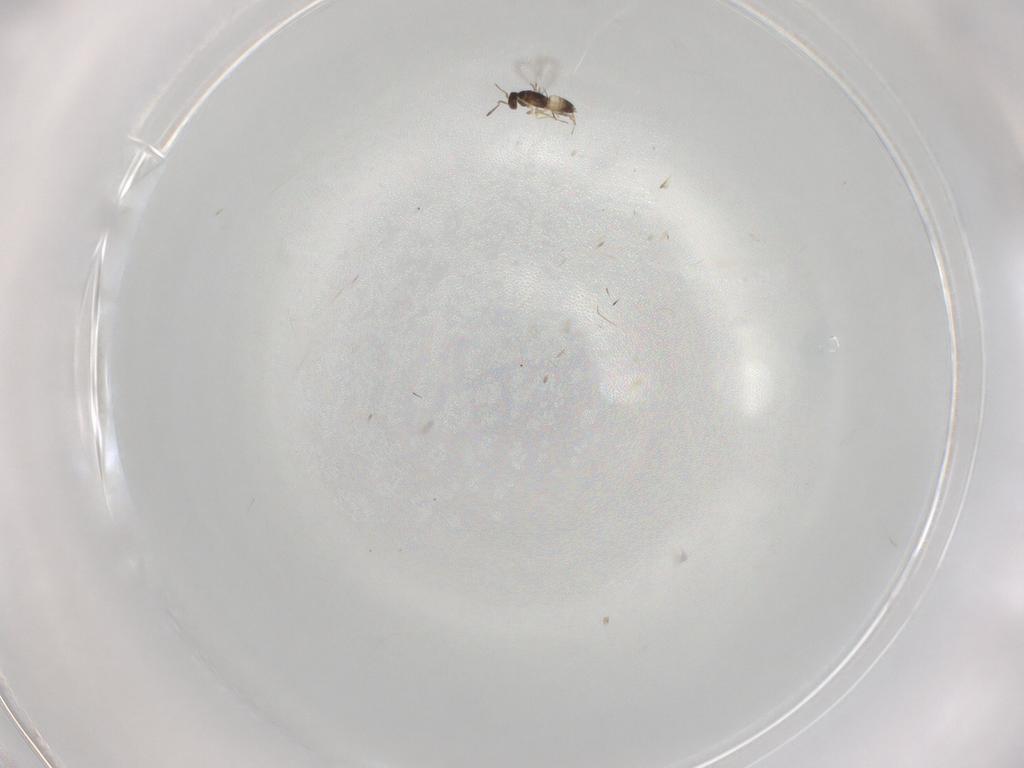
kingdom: Animalia
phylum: Arthropoda
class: Insecta
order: Hymenoptera
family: Mymaridae
